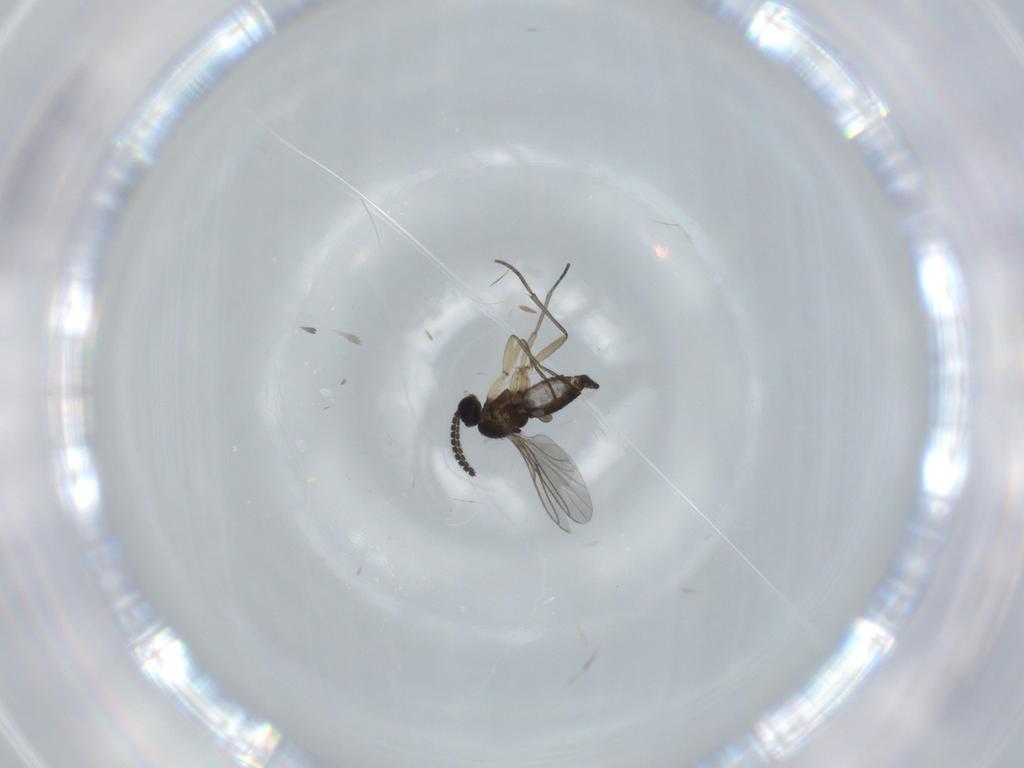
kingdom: Animalia
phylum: Arthropoda
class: Insecta
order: Diptera
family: Sciaridae
